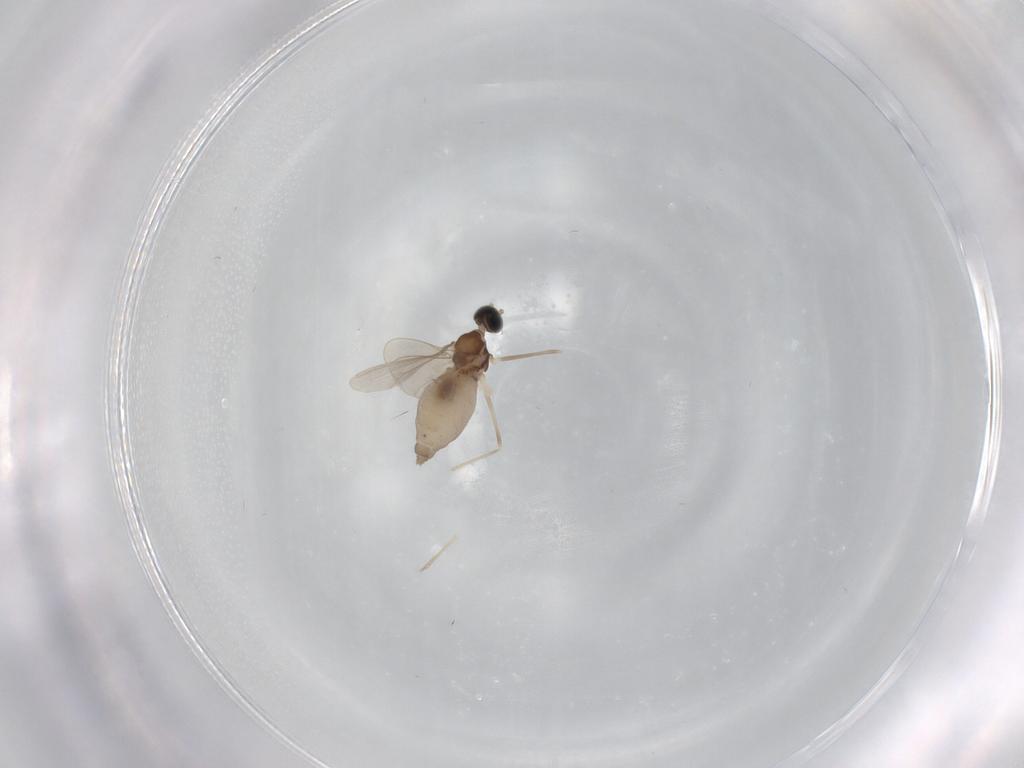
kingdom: Animalia
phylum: Arthropoda
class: Insecta
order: Diptera
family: Cecidomyiidae
